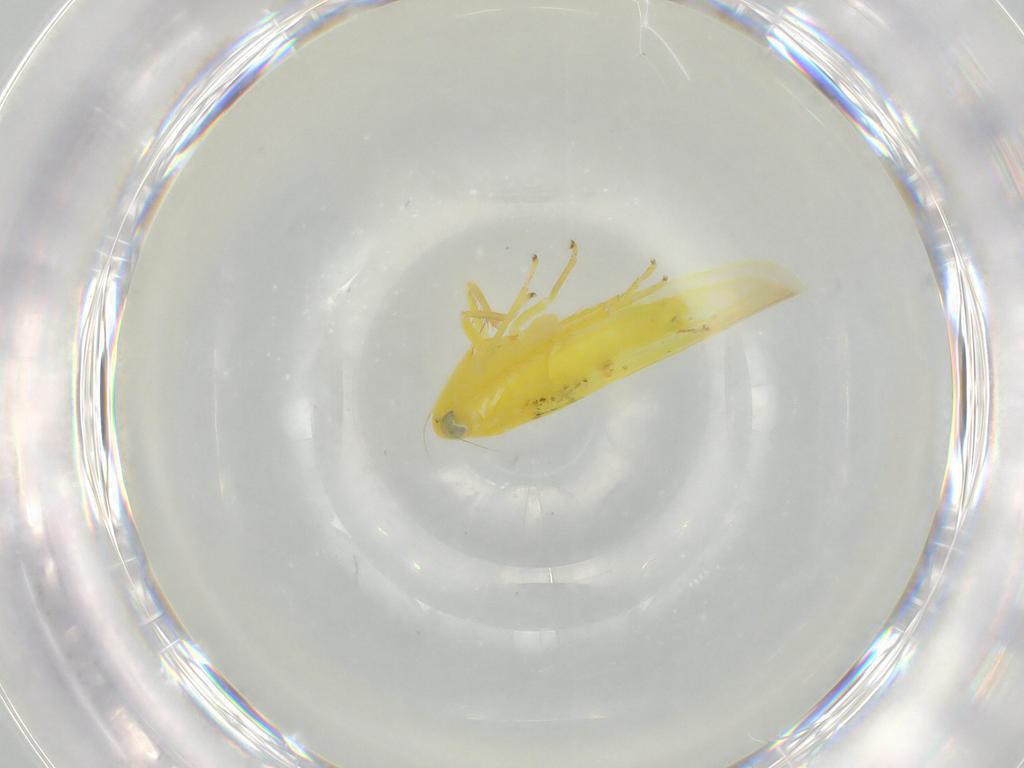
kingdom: Animalia
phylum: Arthropoda
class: Insecta
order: Hemiptera
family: Cicadellidae
